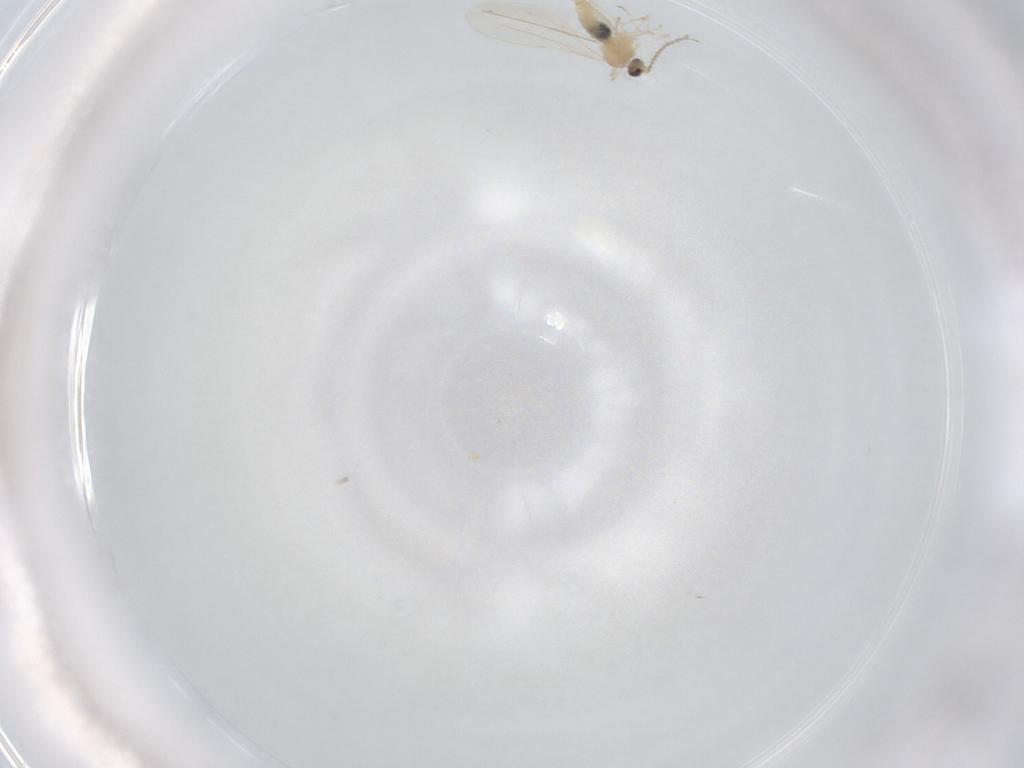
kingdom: Animalia
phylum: Arthropoda
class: Insecta
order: Diptera
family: Cecidomyiidae
